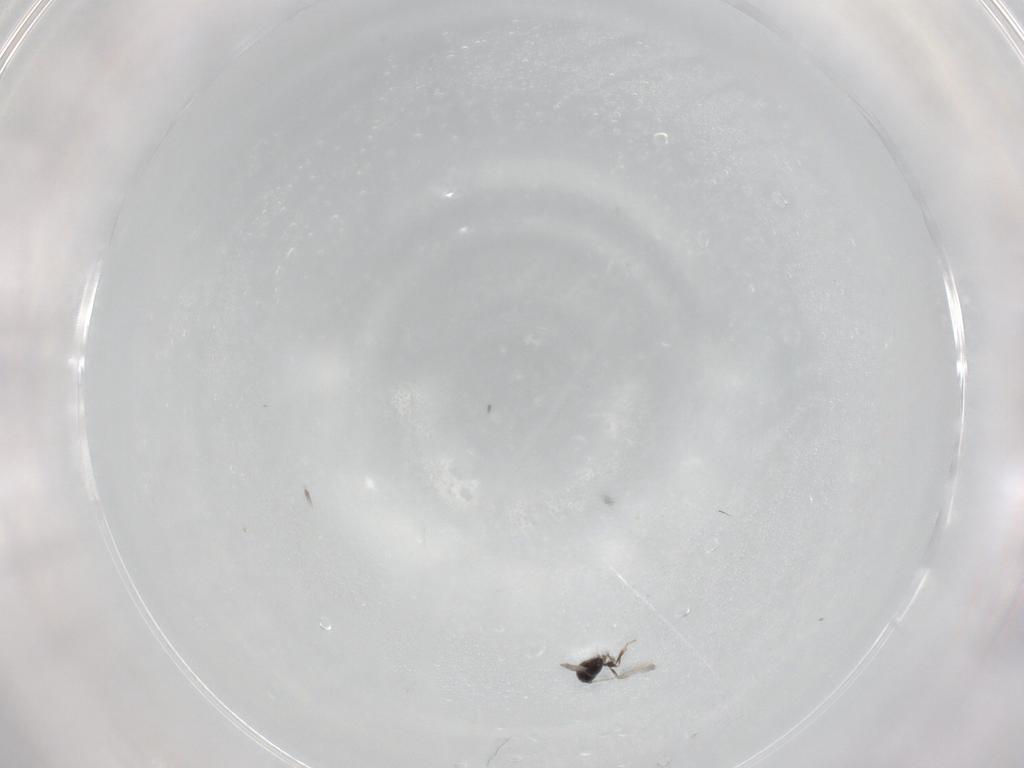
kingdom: Animalia
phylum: Arthropoda
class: Insecta
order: Hymenoptera
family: Ceraphronidae
